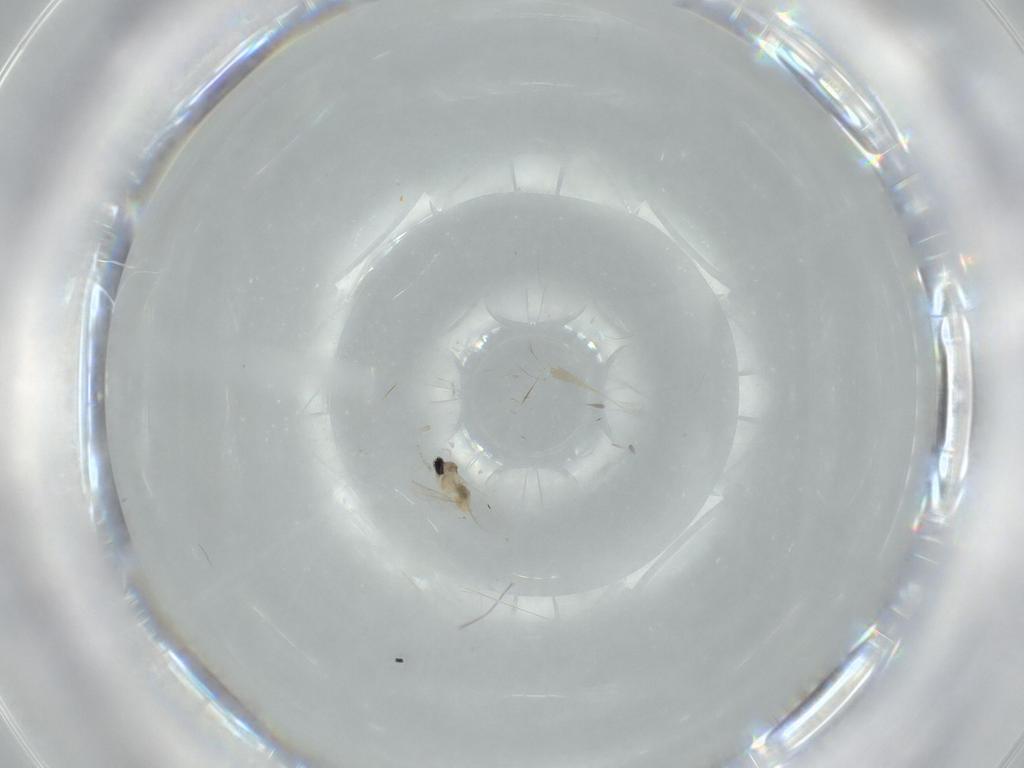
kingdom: Animalia
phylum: Arthropoda
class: Insecta
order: Diptera
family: Cecidomyiidae
